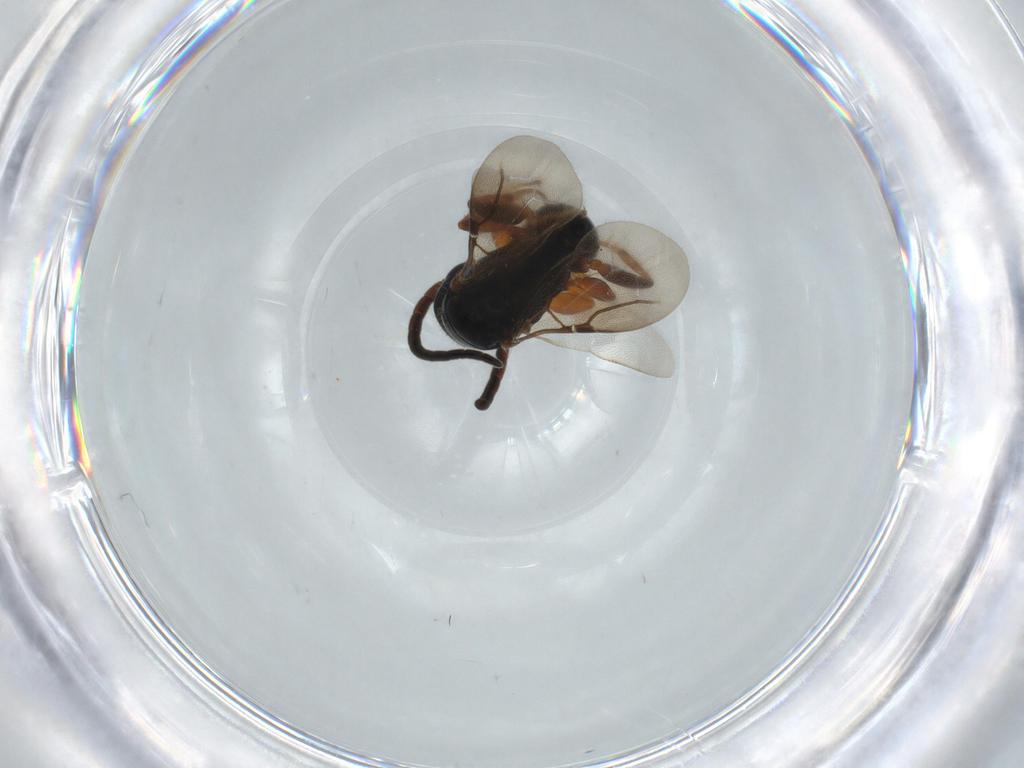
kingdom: Animalia
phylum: Arthropoda
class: Insecta
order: Hymenoptera
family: Bethylidae
